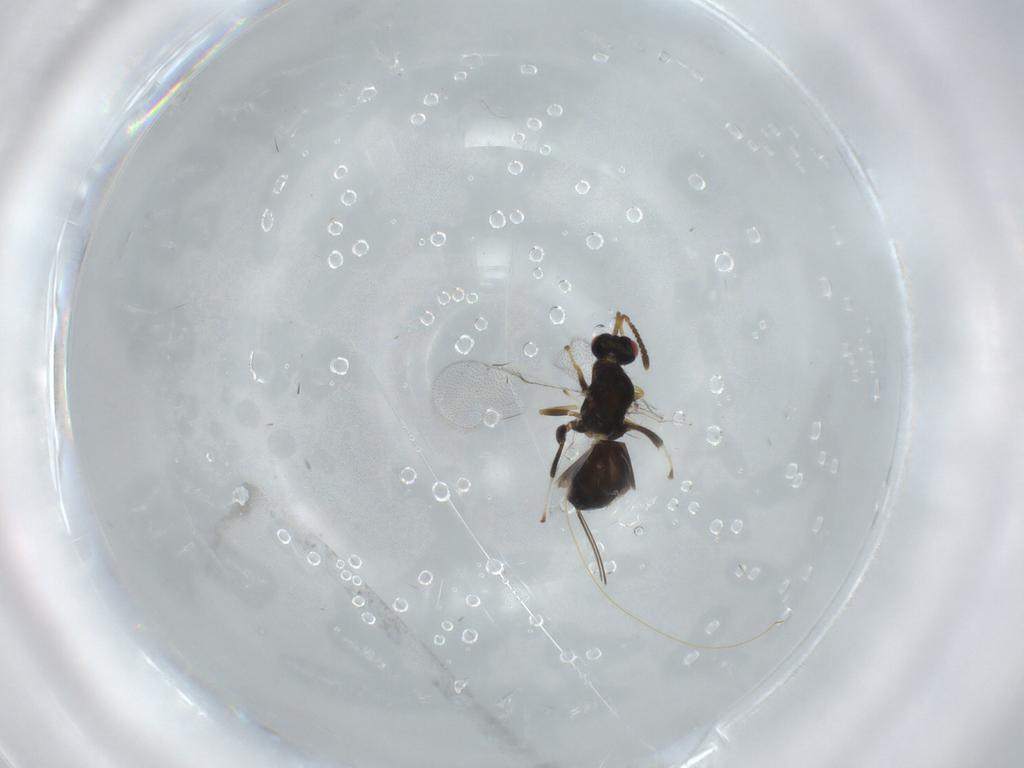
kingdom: Animalia
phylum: Arthropoda
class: Insecta
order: Hymenoptera
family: Torymidae
